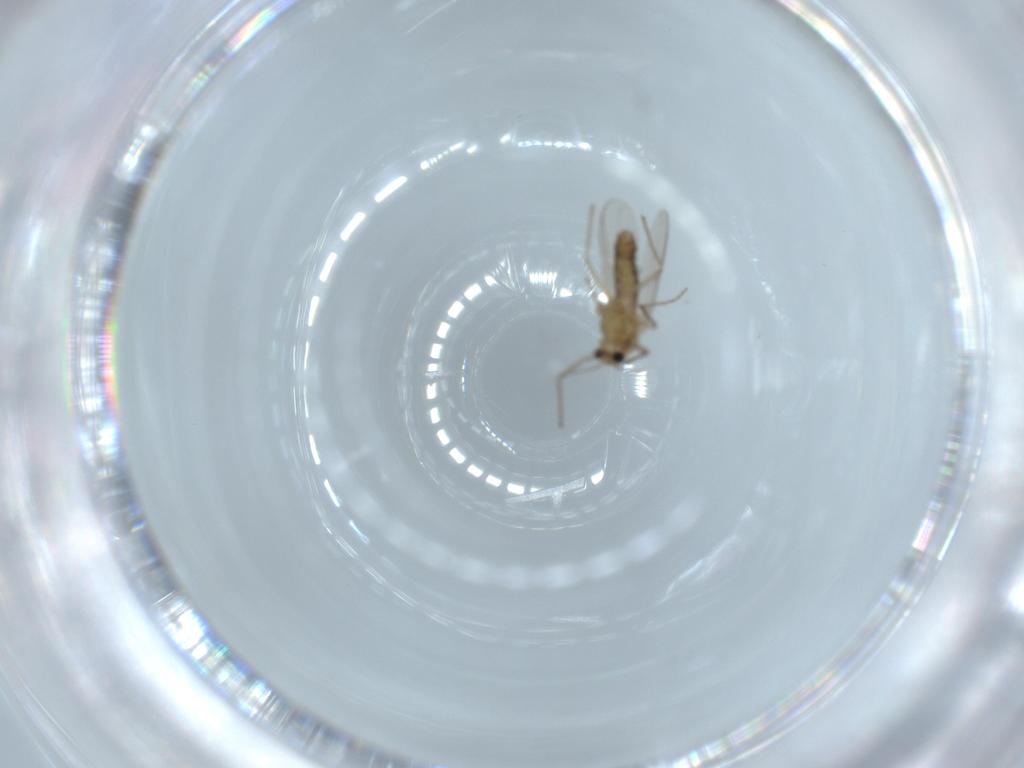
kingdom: Animalia
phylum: Arthropoda
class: Insecta
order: Diptera
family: Chironomidae
